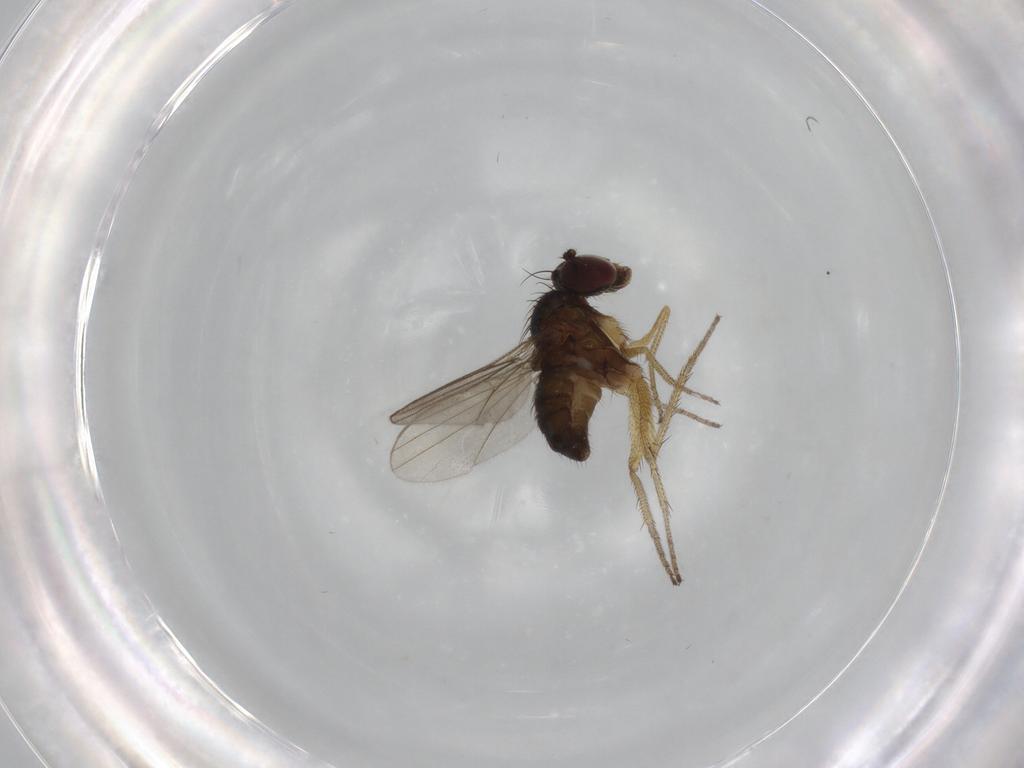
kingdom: Animalia
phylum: Arthropoda
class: Insecta
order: Diptera
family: Dolichopodidae
